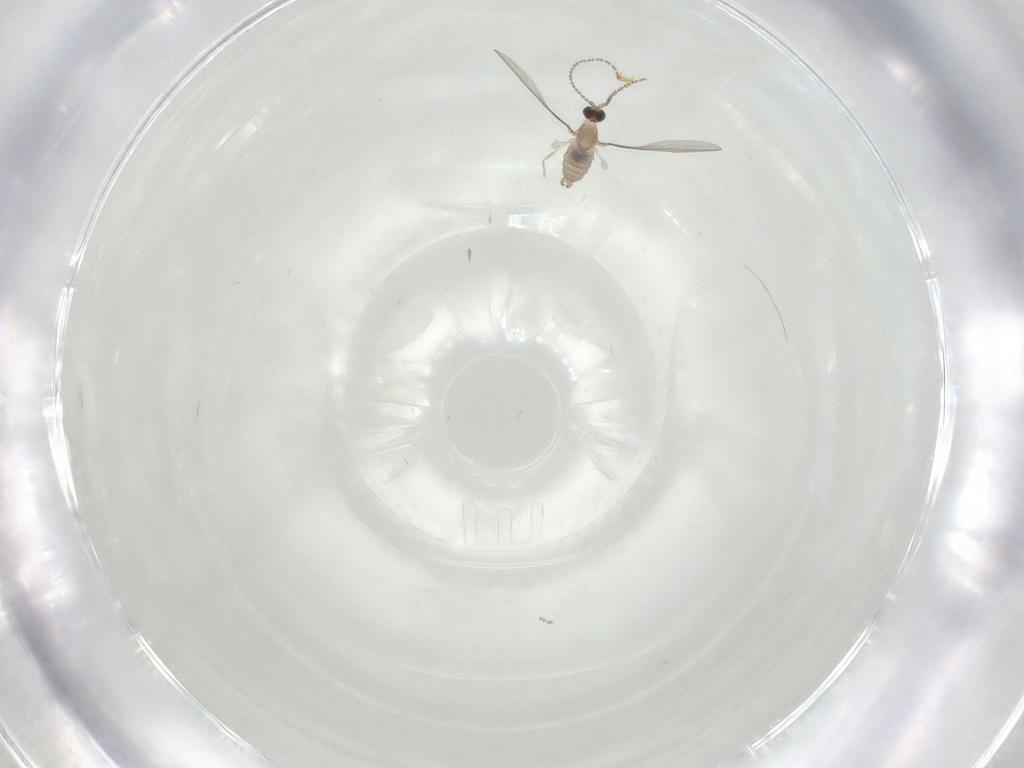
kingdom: Animalia
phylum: Arthropoda
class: Insecta
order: Diptera
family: Cecidomyiidae
